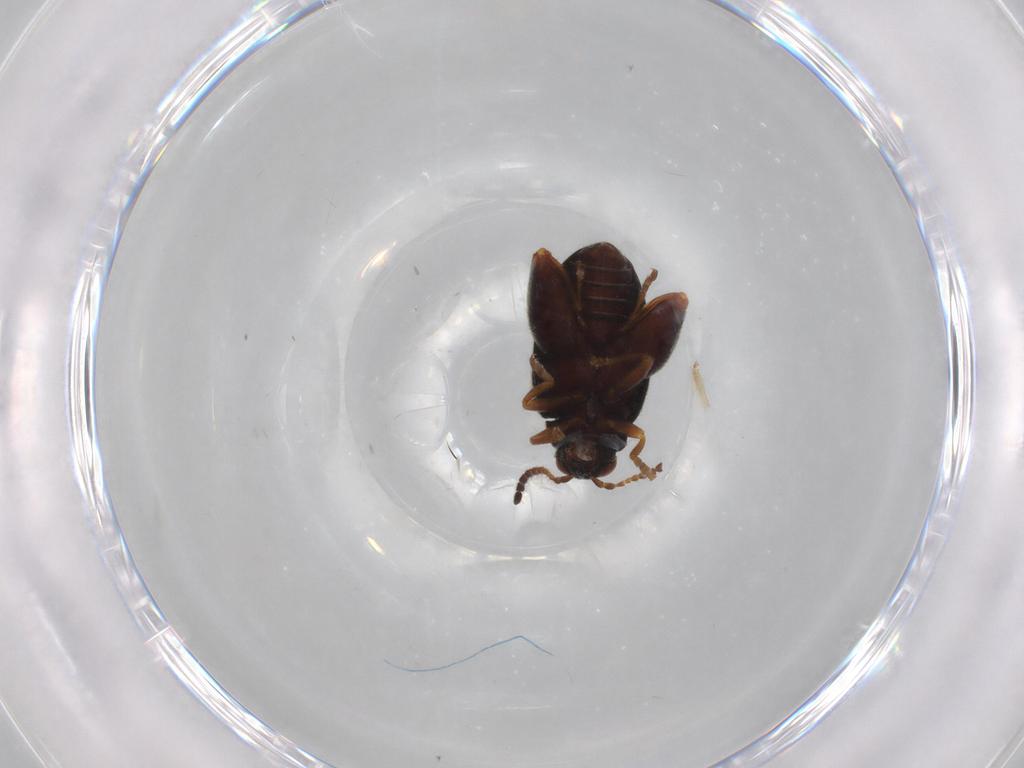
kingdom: Animalia
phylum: Arthropoda
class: Insecta
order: Coleoptera
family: Chrysomelidae
